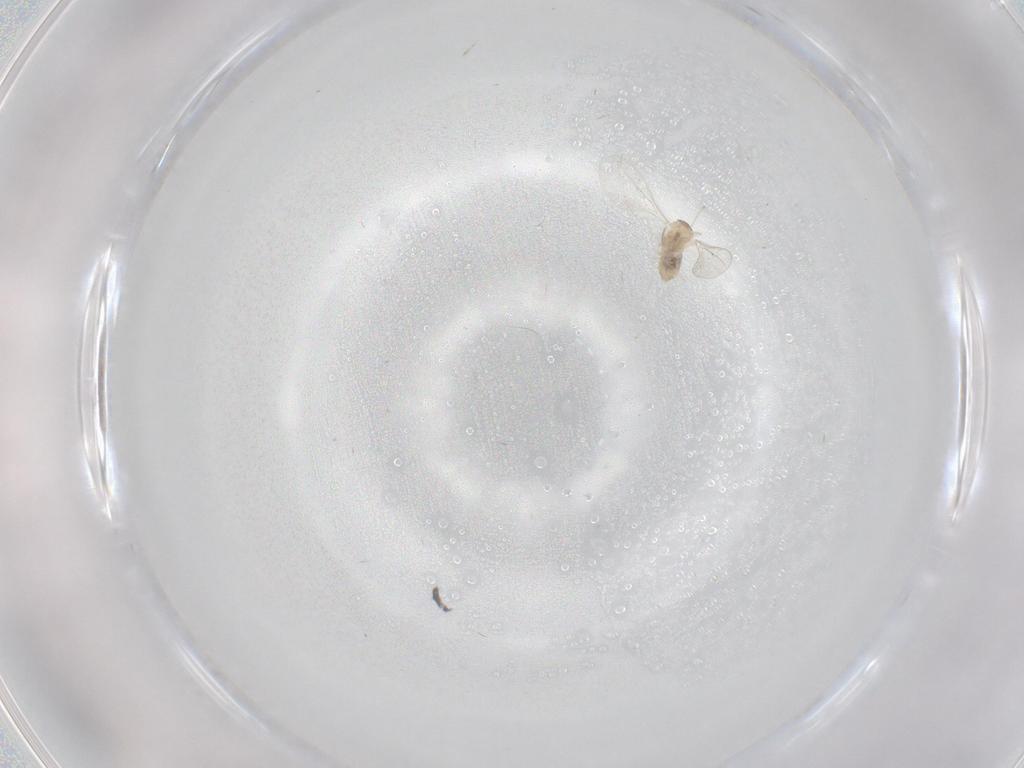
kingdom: Animalia
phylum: Arthropoda
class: Insecta
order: Diptera
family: Cecidomyiidae
